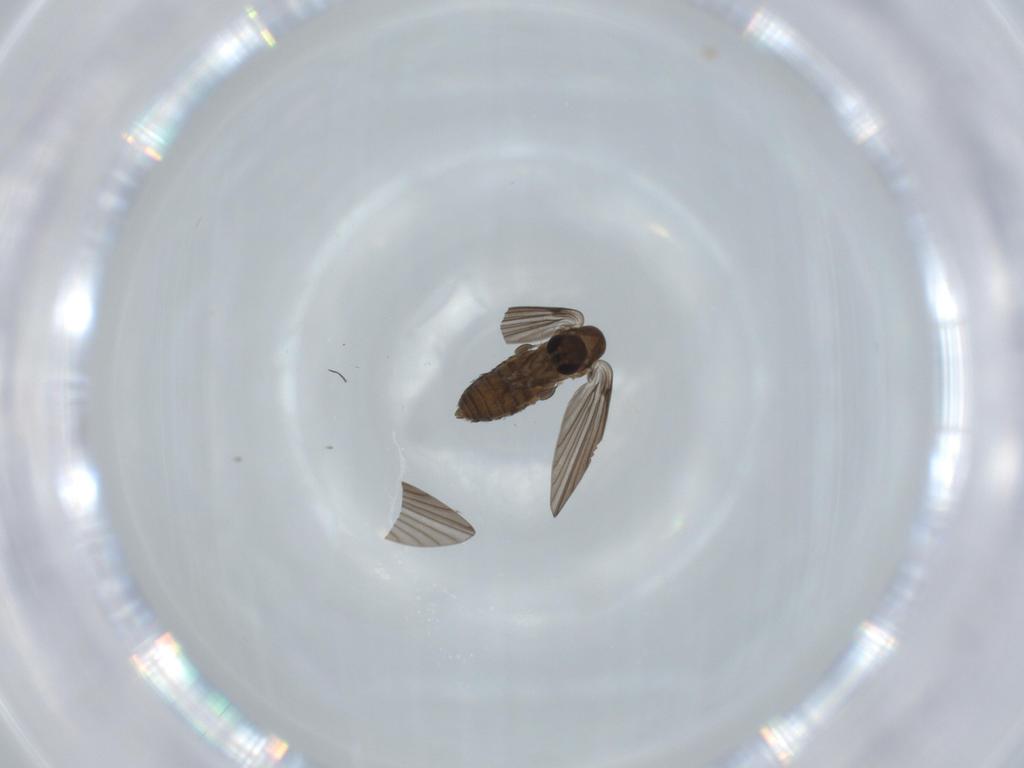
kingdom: Animalia
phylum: Arthropoda
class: Insecta
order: Diptera
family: Psychodidae
